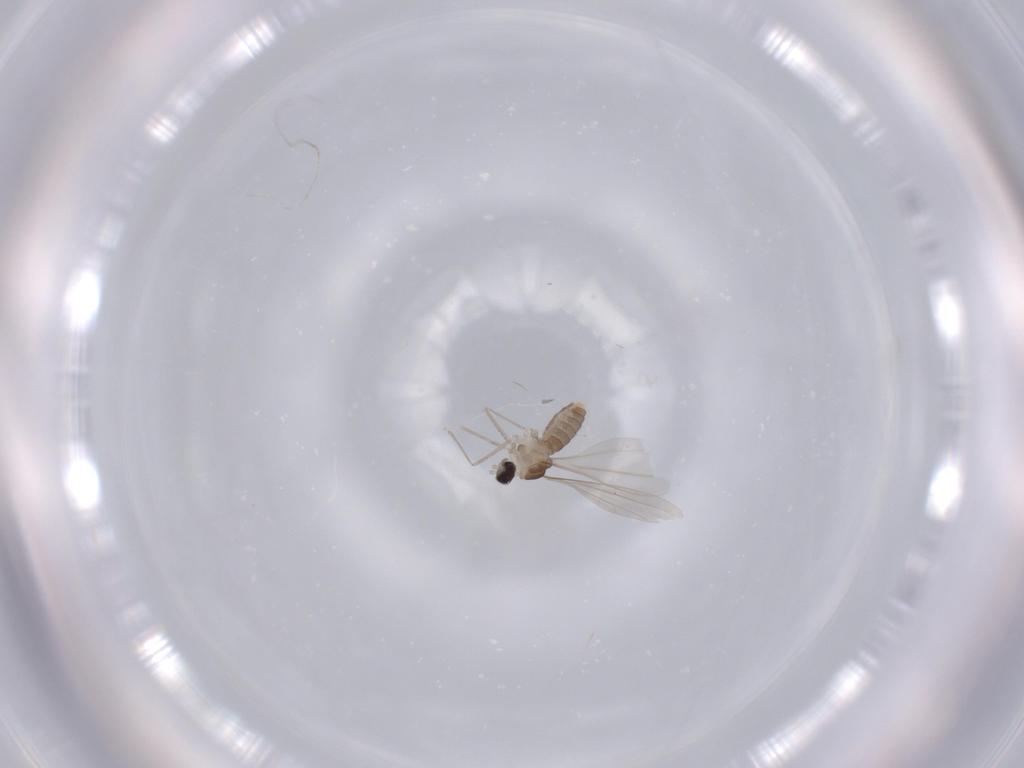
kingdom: Animalia
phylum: Arthropoda
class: Insecta
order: Diptera
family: Cecidomyiidae
